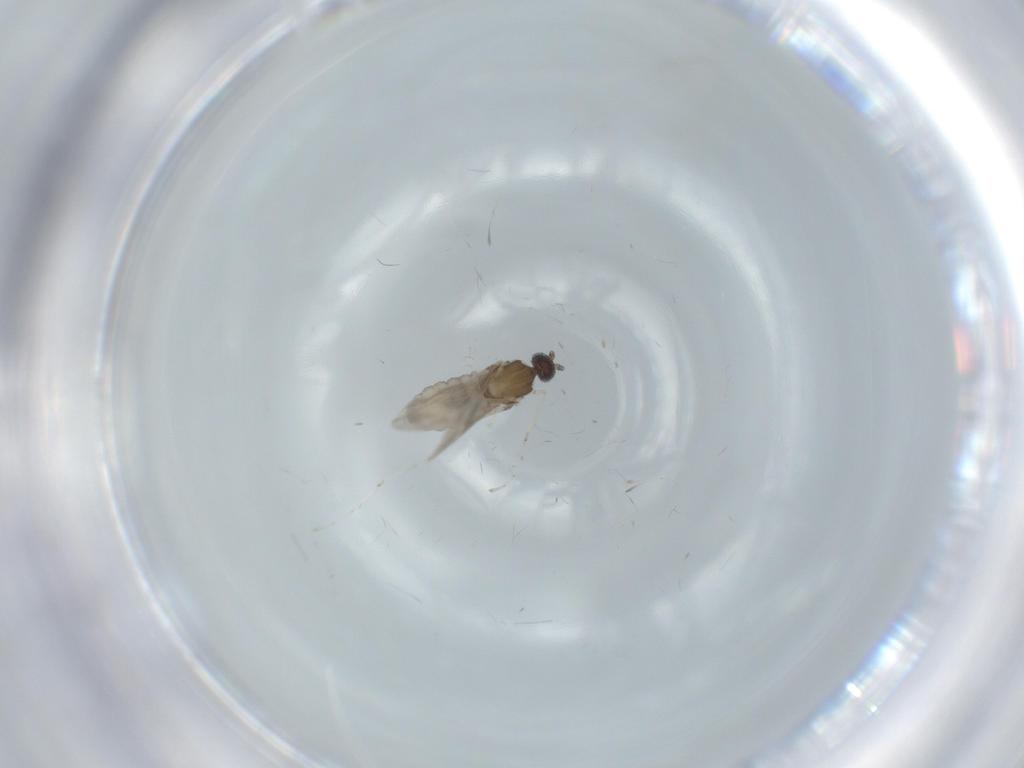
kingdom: Animalia
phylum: Arthropoda
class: Insecta
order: Diptera
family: Cecidomyiidae
